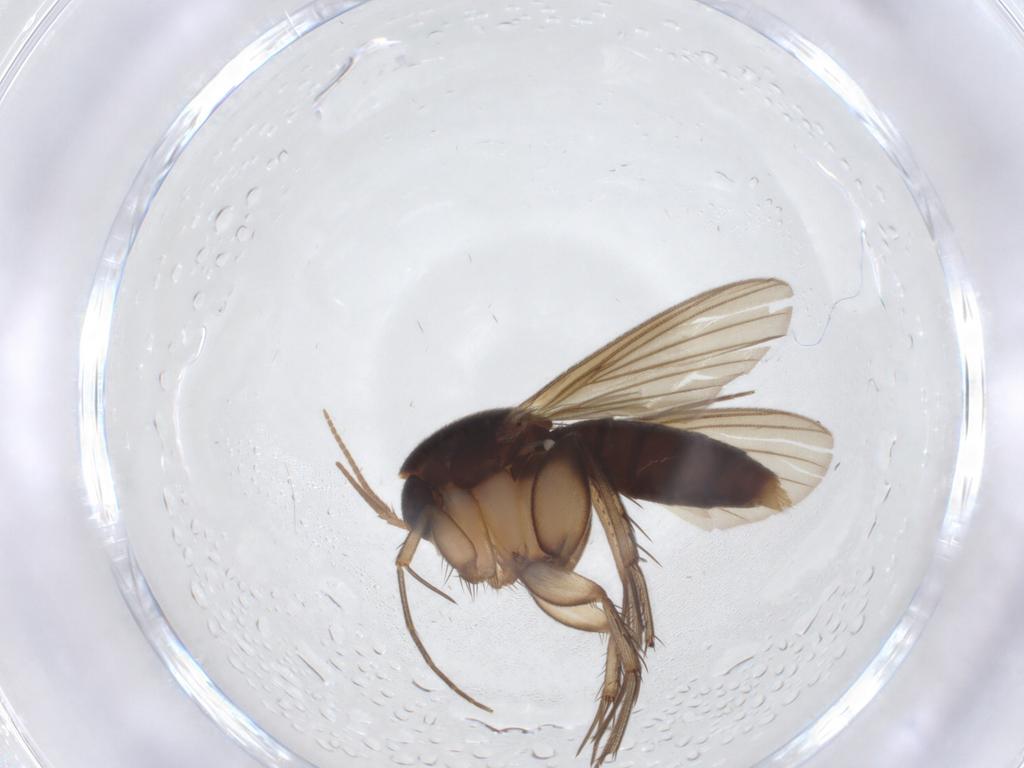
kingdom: Animalia
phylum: Arthropoda
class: Insecta
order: Diptera
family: Mycetophilidae
